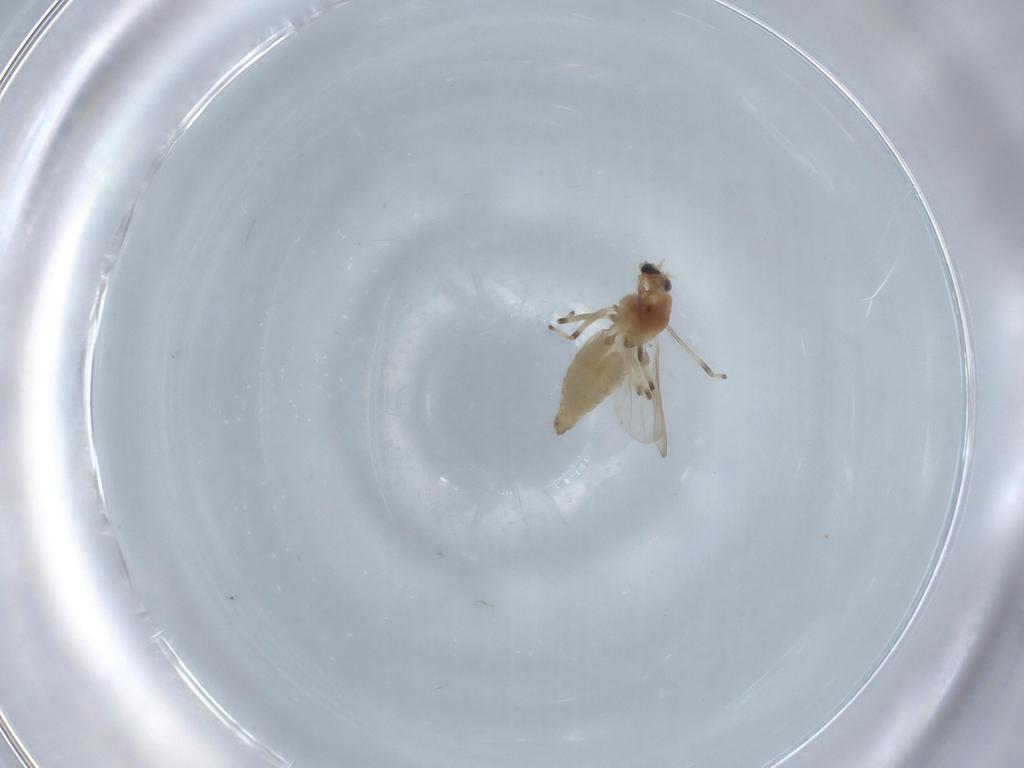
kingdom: Animalia
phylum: Arthropoda
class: Insecta
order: Diptera
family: Chironomidae
